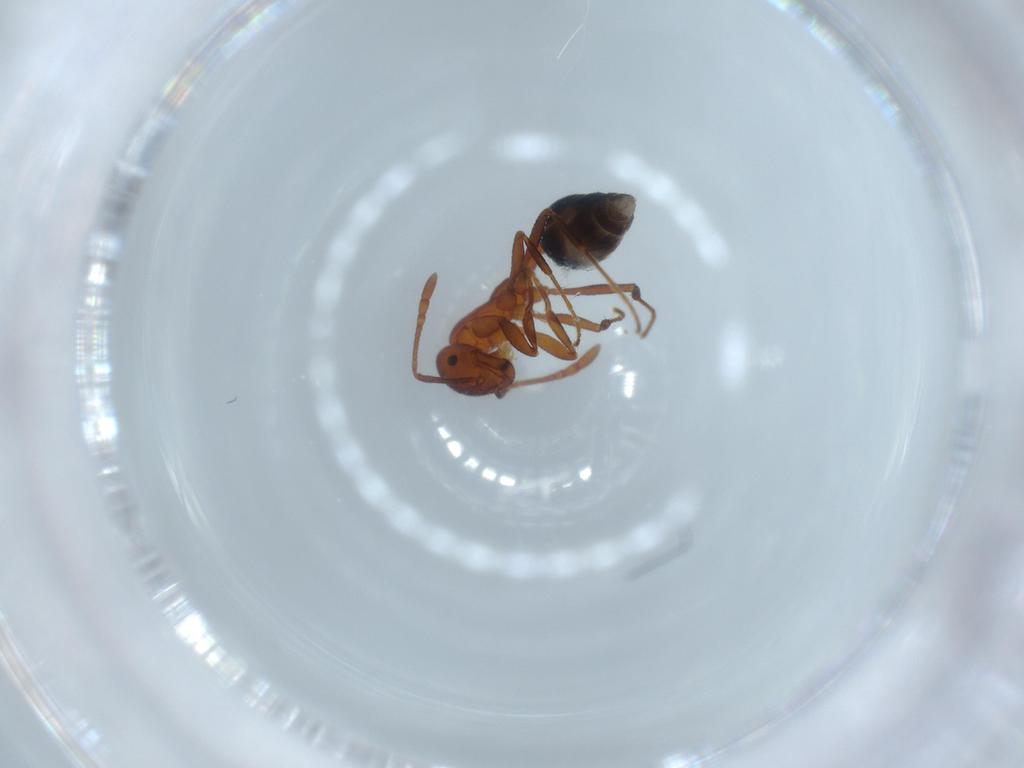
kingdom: Animalia
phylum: Arthropoda
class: Insecta
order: Hymenoptera
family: Formicidae
